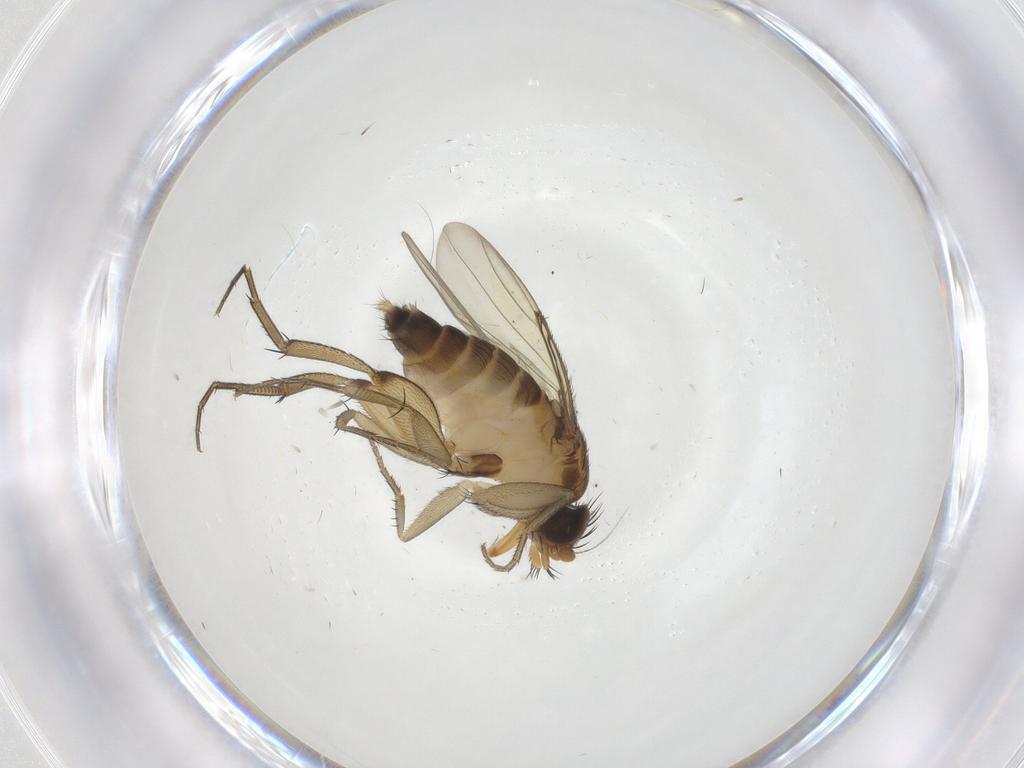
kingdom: Animalia
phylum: Arthropoda
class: Insecta
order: Diptera
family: Phoridae
